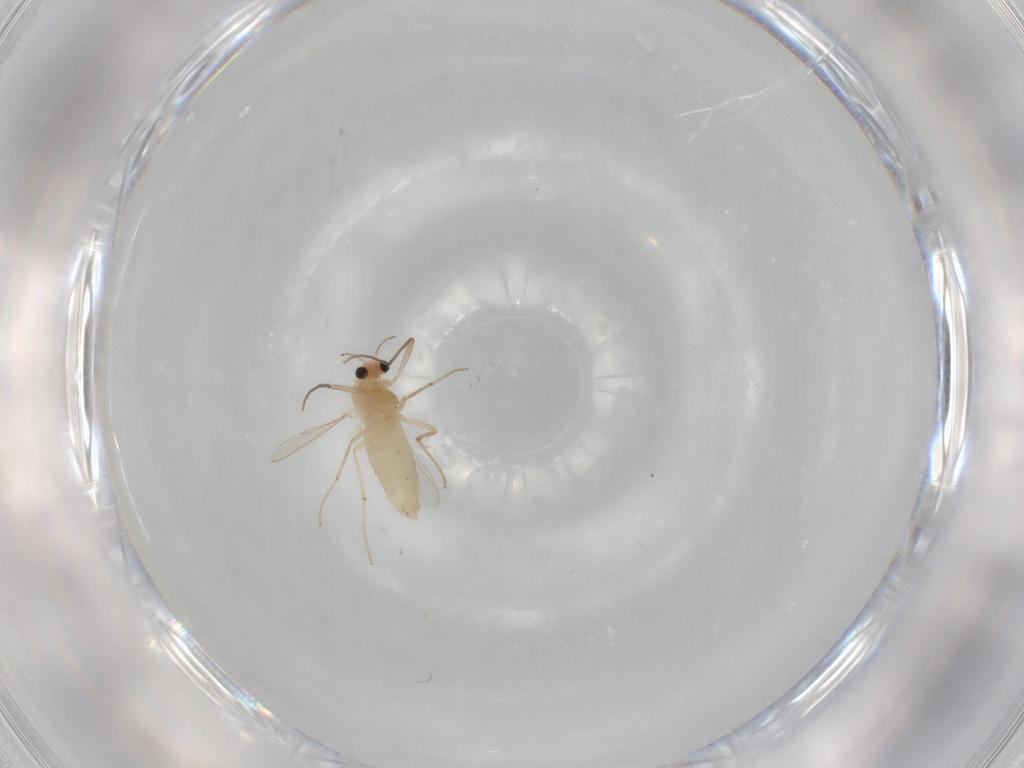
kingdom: Animalia
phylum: Arthropoda
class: Insecta
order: Diptera
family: Chironomidae
